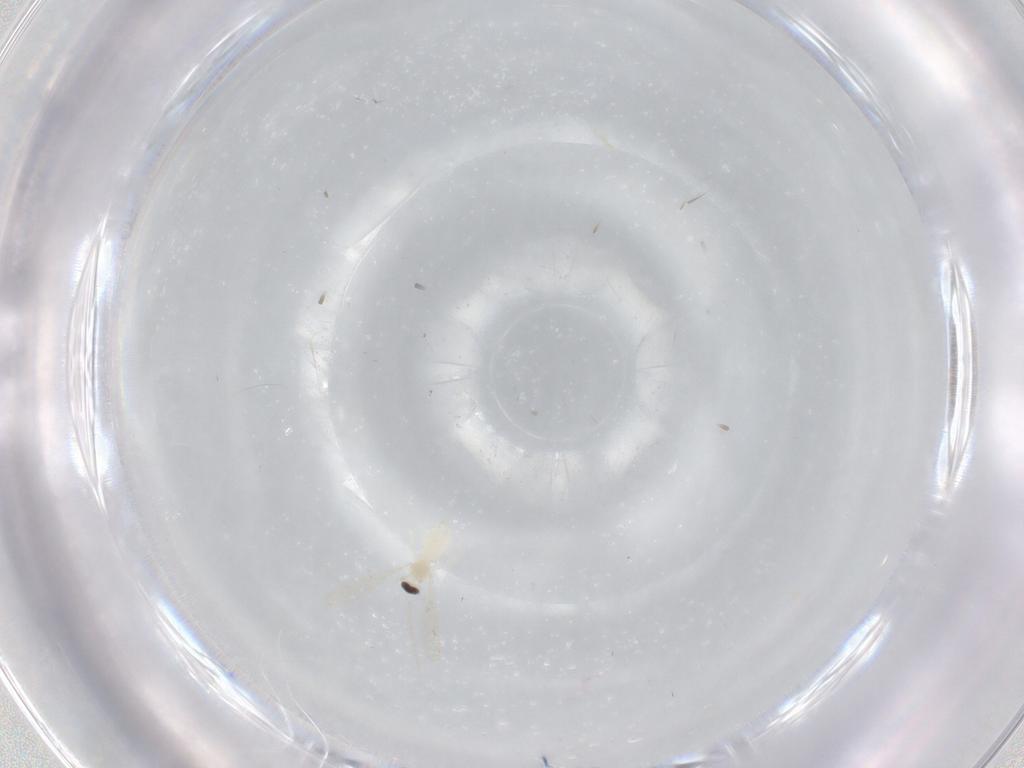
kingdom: Animalia
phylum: Arthropoda
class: Insecta
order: Diptera
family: Cecidomyiidae
